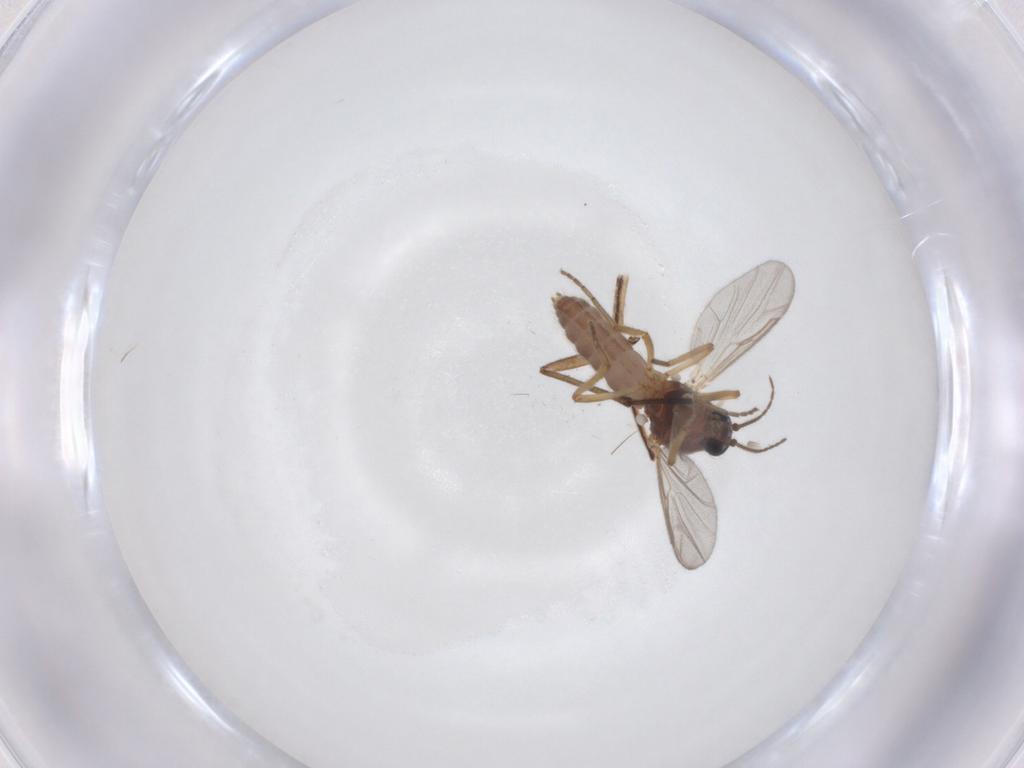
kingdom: Animalia
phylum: Arthropoda
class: Insecta
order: Diptera
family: Ceratopogonidae
